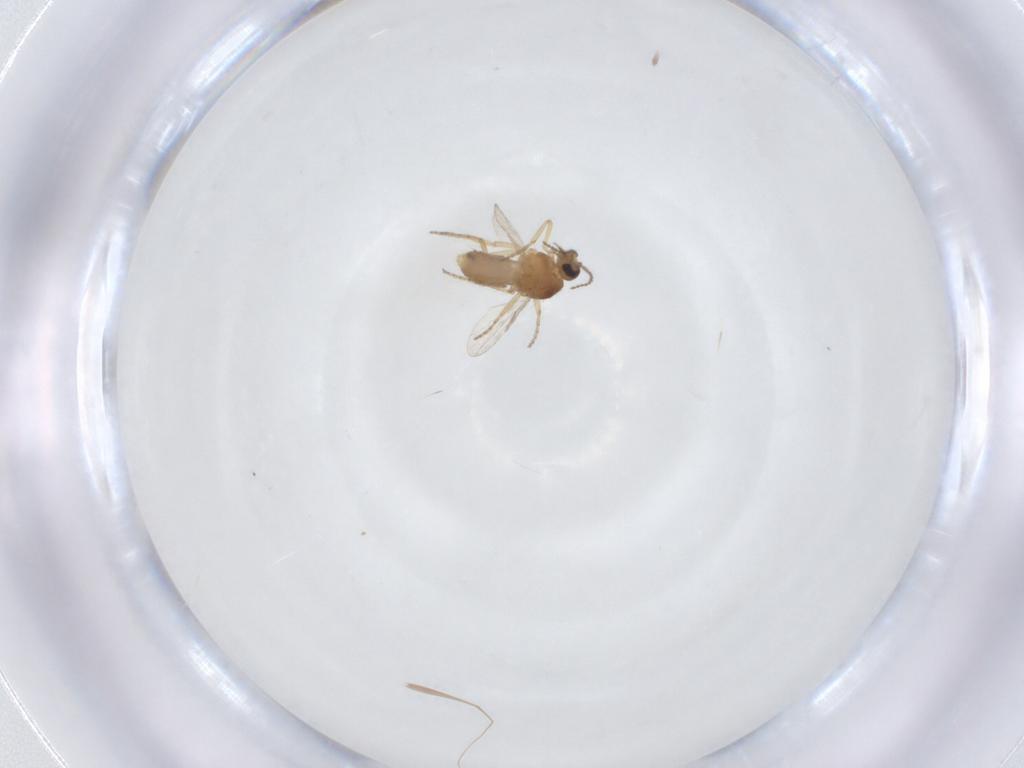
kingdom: Animalia
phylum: Arthropoda
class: Insecta
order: Diptera
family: Ceratopogonidae
